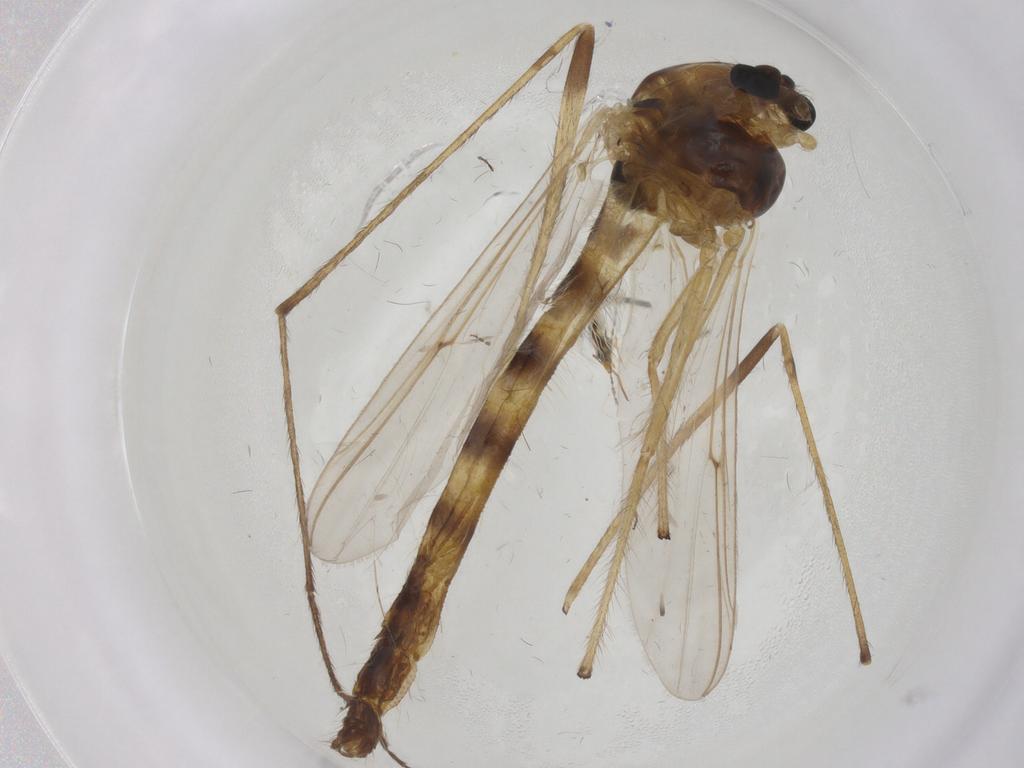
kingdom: Animalia
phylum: Arthropoda
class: Insecta
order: Diptera
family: Chironomidae
